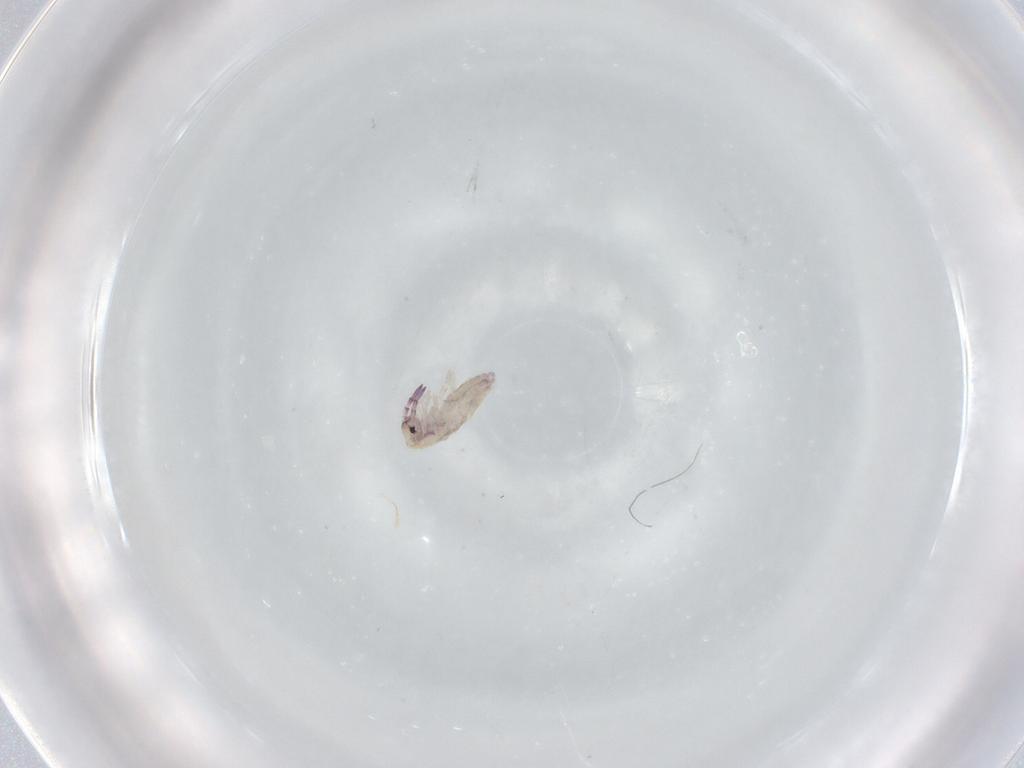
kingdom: Animalia
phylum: Arthropoda
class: Collembola
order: Entomobryomorpha
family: Entomobryidae
